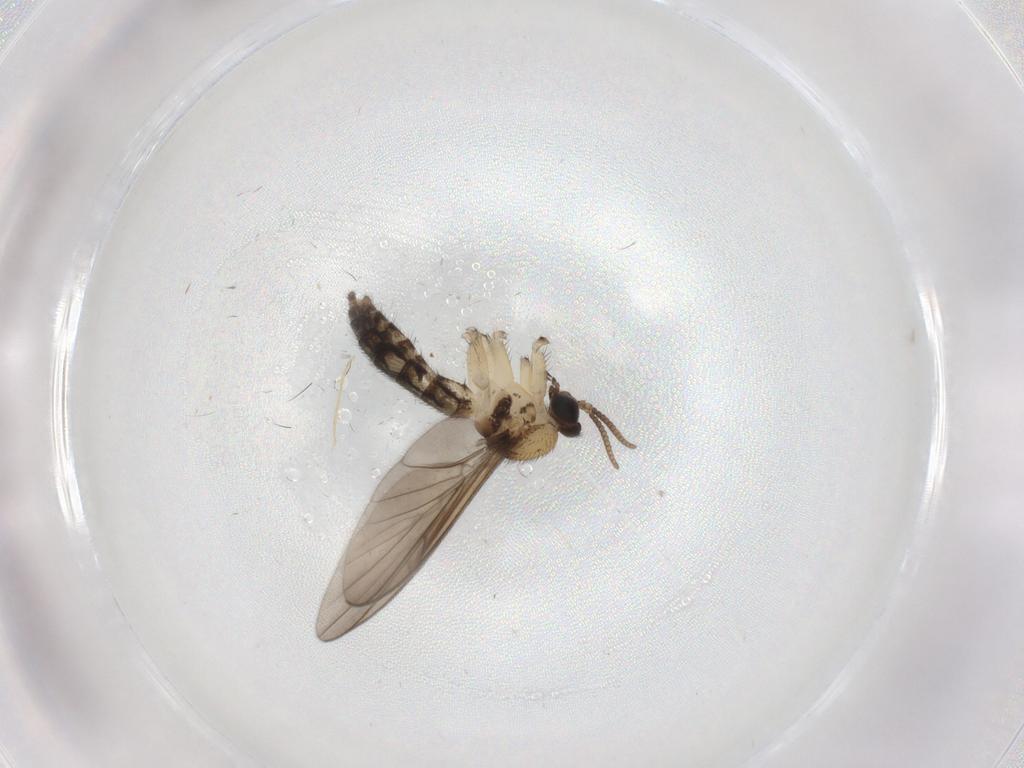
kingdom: Animalia
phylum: Arthropoda
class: Insecta
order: Diptera
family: Keroplatidae
